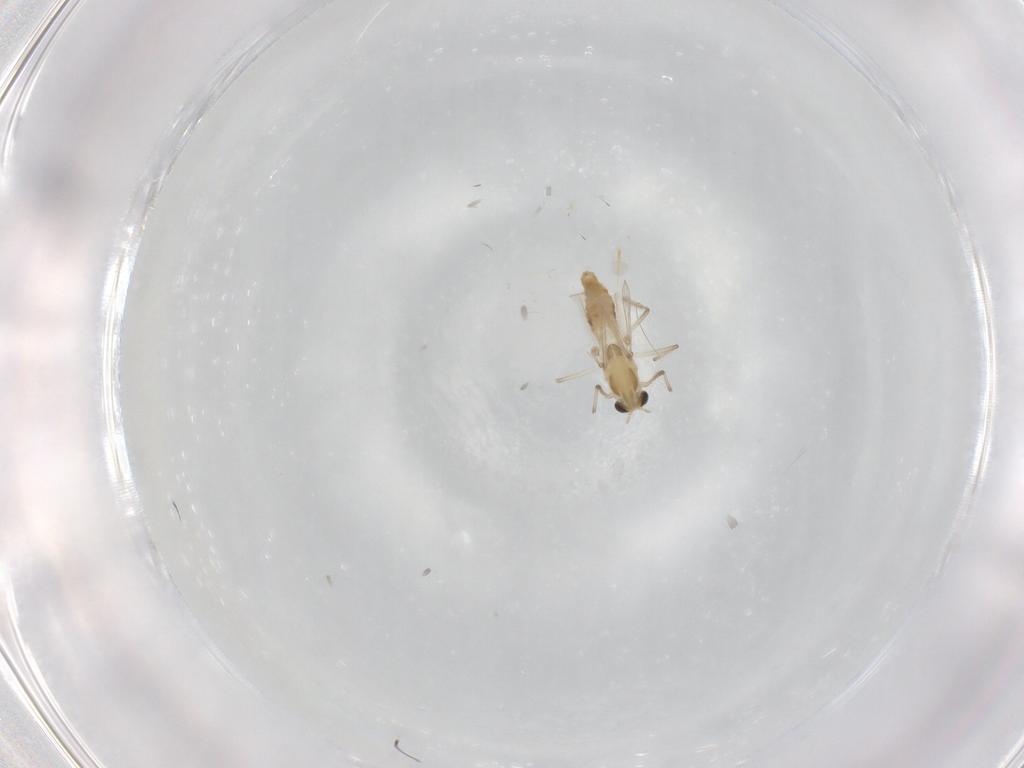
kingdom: Animalia
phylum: Arthropoda
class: Insecta
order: Diptera
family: Chironomidae
